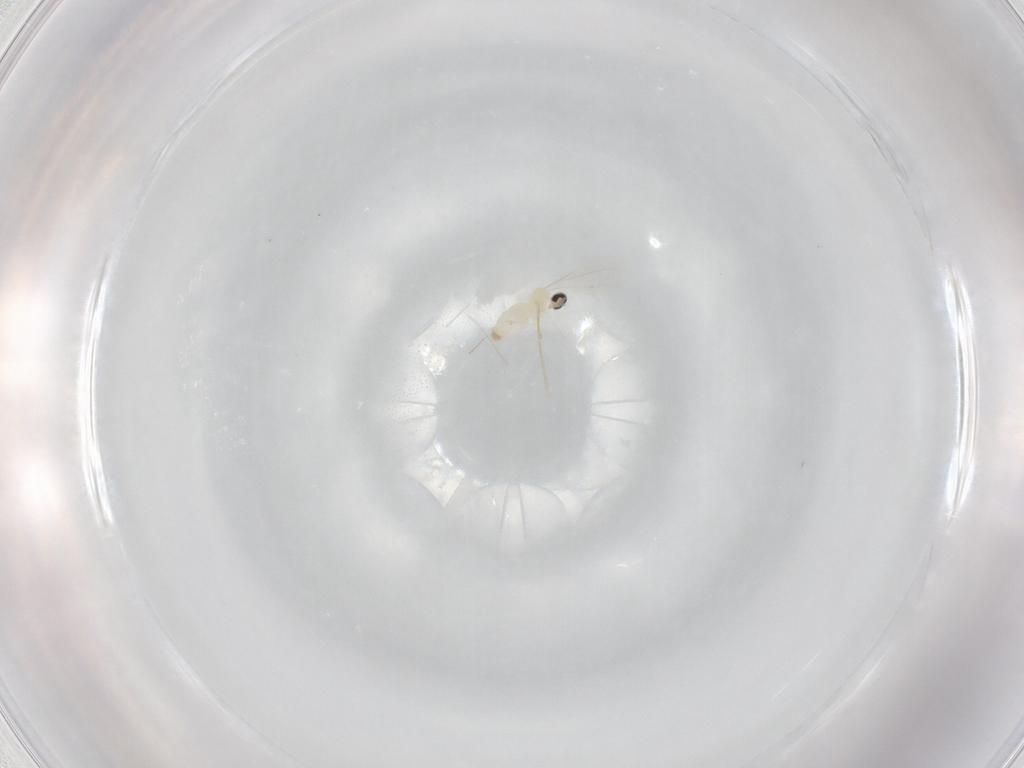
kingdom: Animalia
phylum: Arthropoda
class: Insecta
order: Diptera
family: Cecidomyiidae
